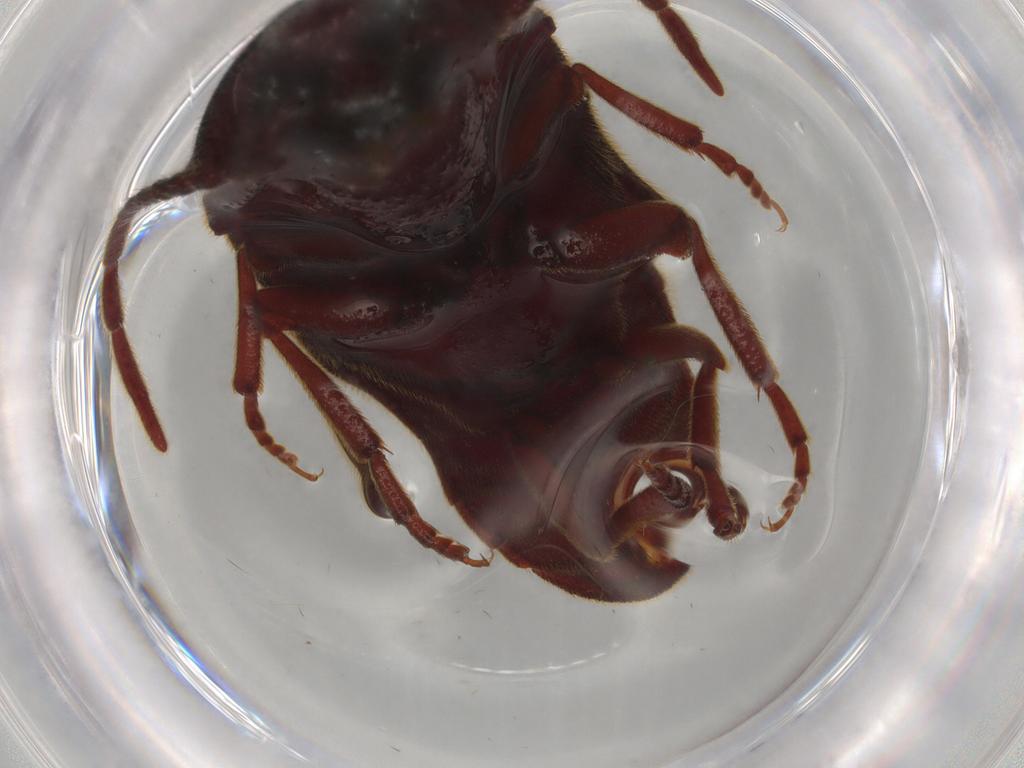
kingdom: Animalia
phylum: Arthropoda
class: Insecta
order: Coleoptera
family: Eucnemidae
